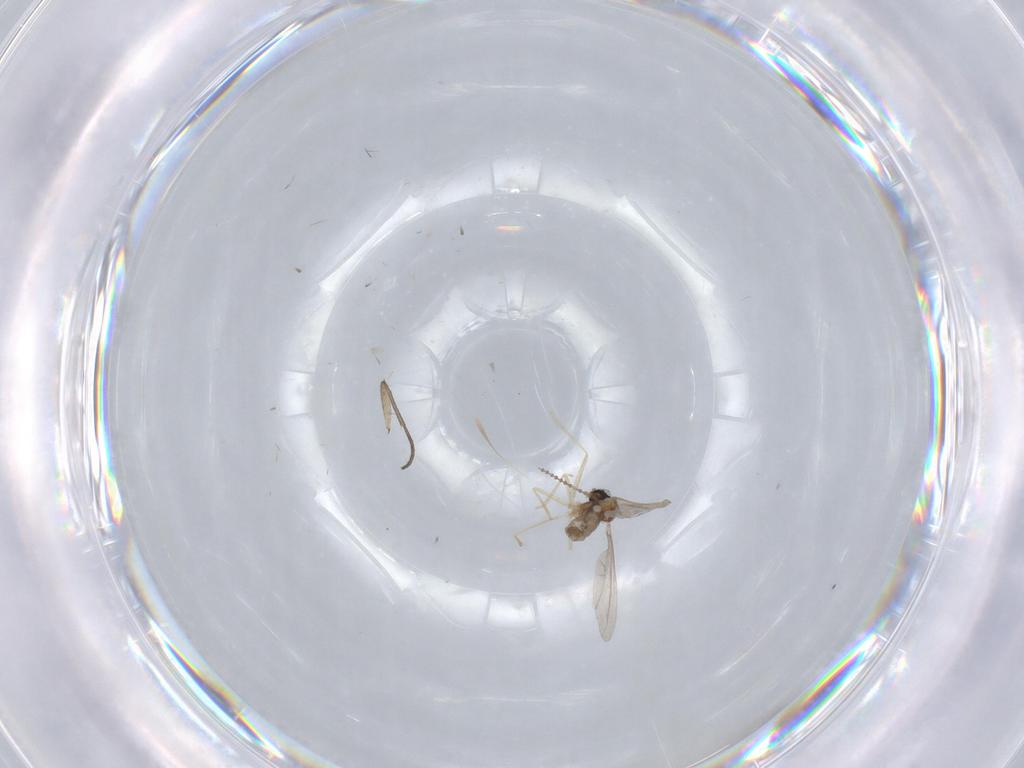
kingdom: Animalia
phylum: Arthropoda
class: Insecta
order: Diptera
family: Cecidomyiidae
